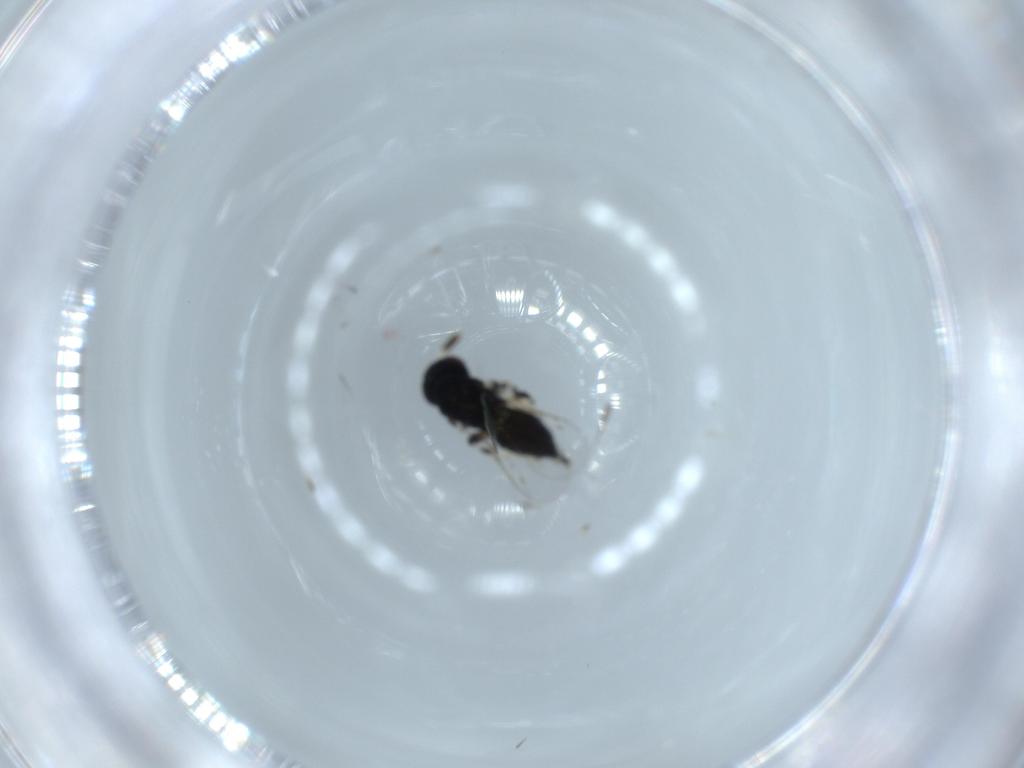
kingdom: Animalia
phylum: Arthropoda
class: Insecta
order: Hymenoptera
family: Pirenidae
